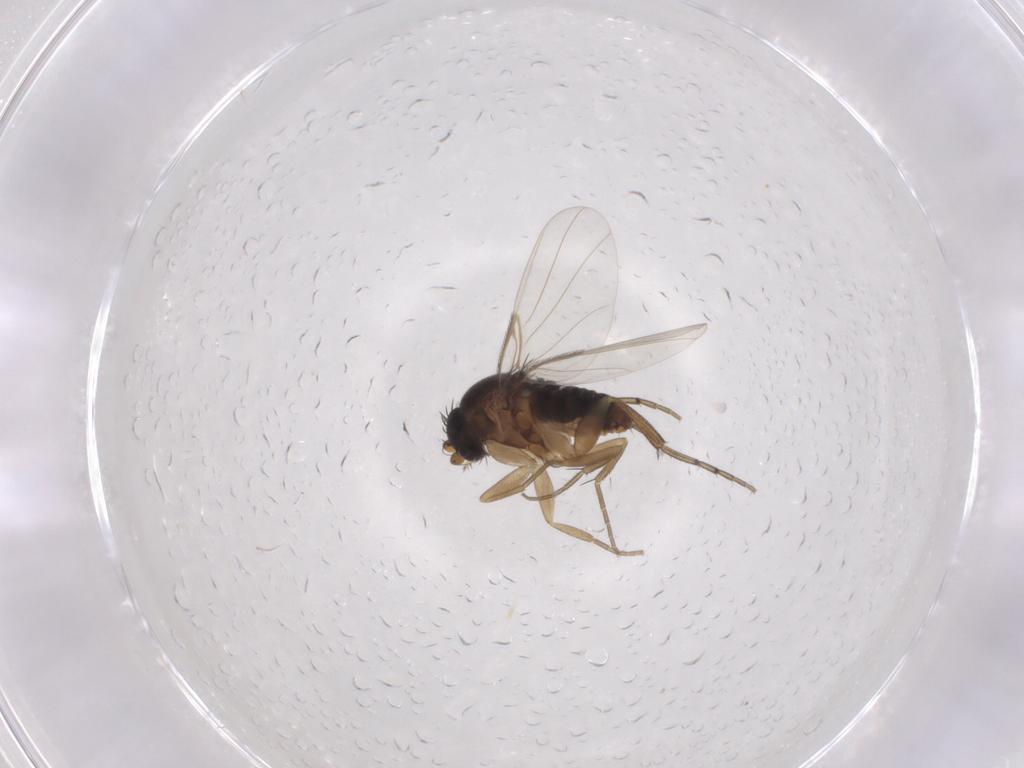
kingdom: Animalia
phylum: Arthropoda
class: Insecta
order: Diptera
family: Phoridae
